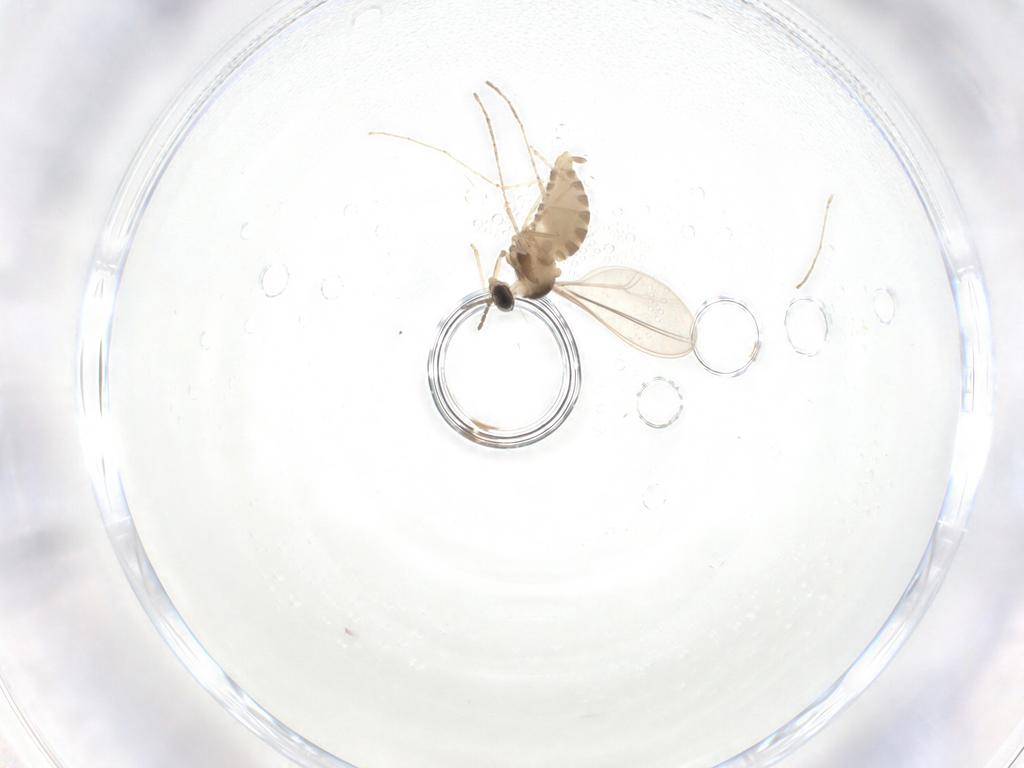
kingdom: Animalia
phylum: Arthropoda
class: Insecta
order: Diptera
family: Cecidomyiidae
